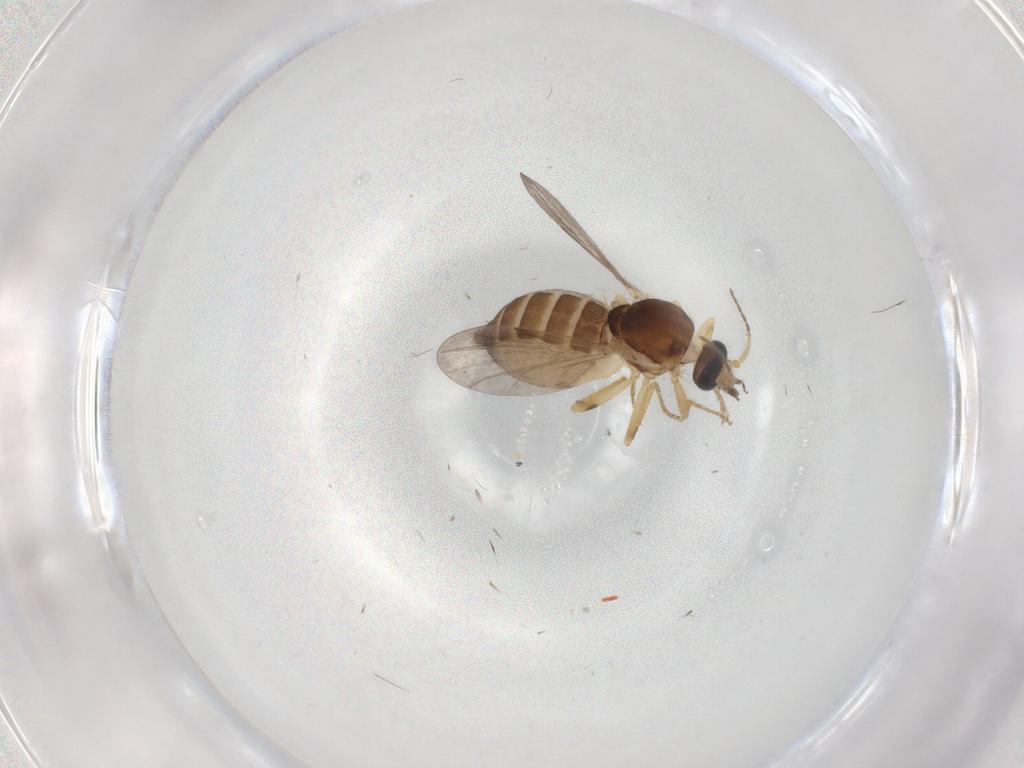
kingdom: Animalia
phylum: Arthropoda
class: Insecta
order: Diptera
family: Ceratopogonidae
